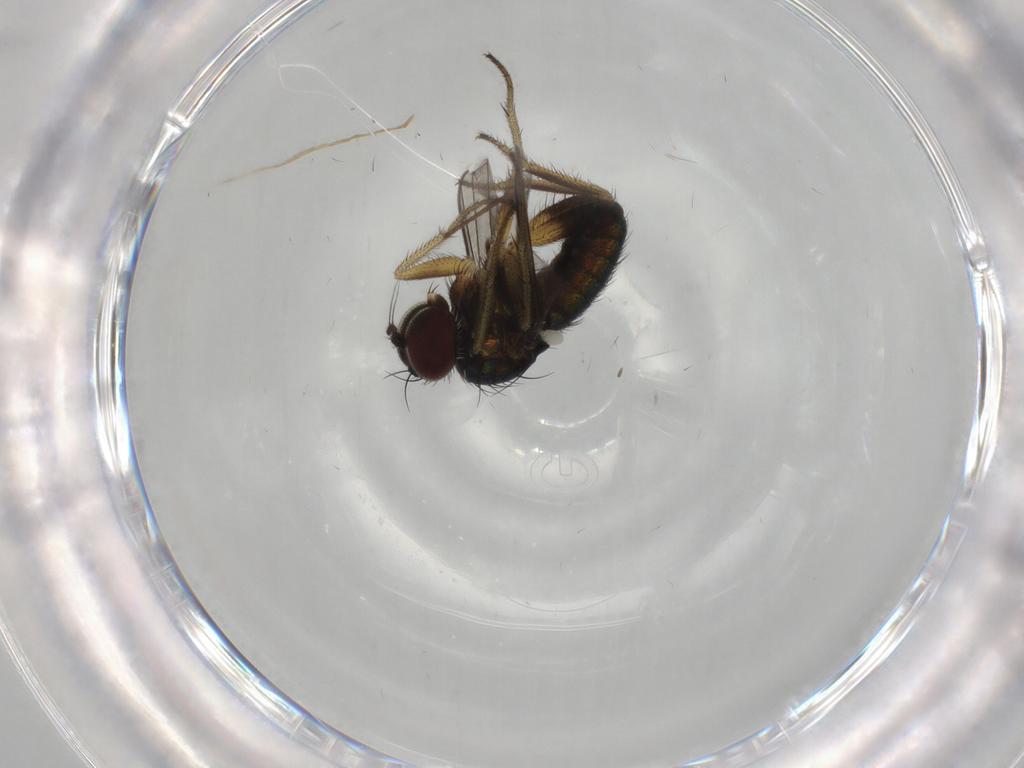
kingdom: Animalia
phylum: Arthropoda
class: Insecta
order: Diptera
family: Dolichopodidae
